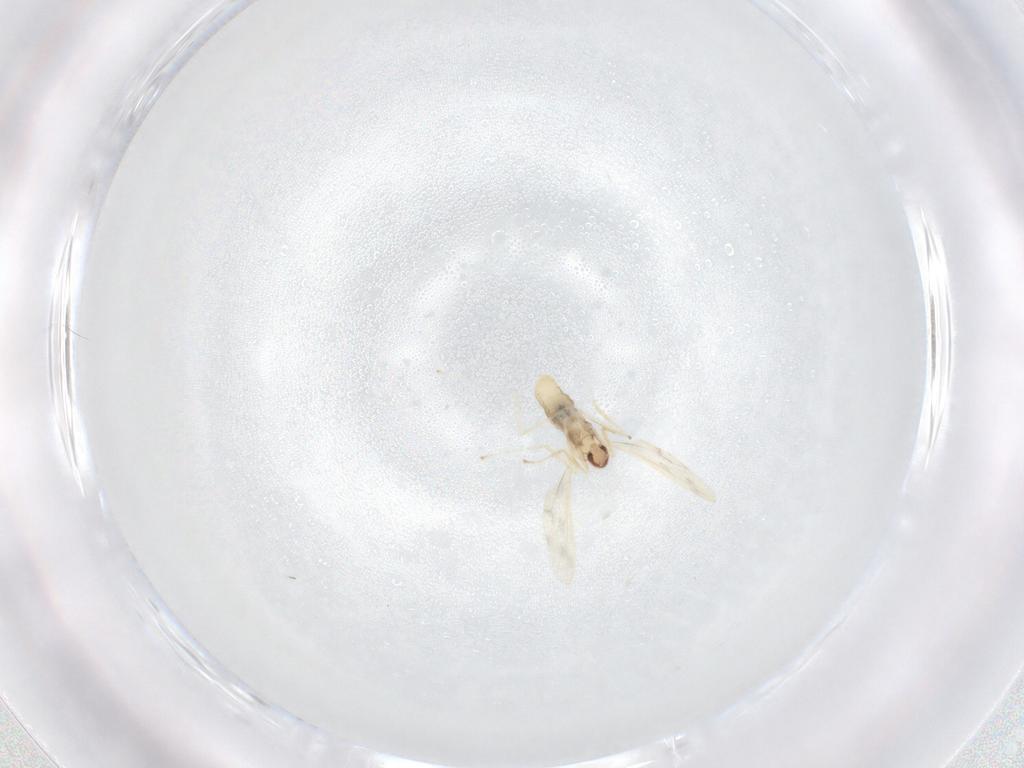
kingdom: Animalia
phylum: Arthropoda
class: Insecta
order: Diptera
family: Cecidomyiidae
